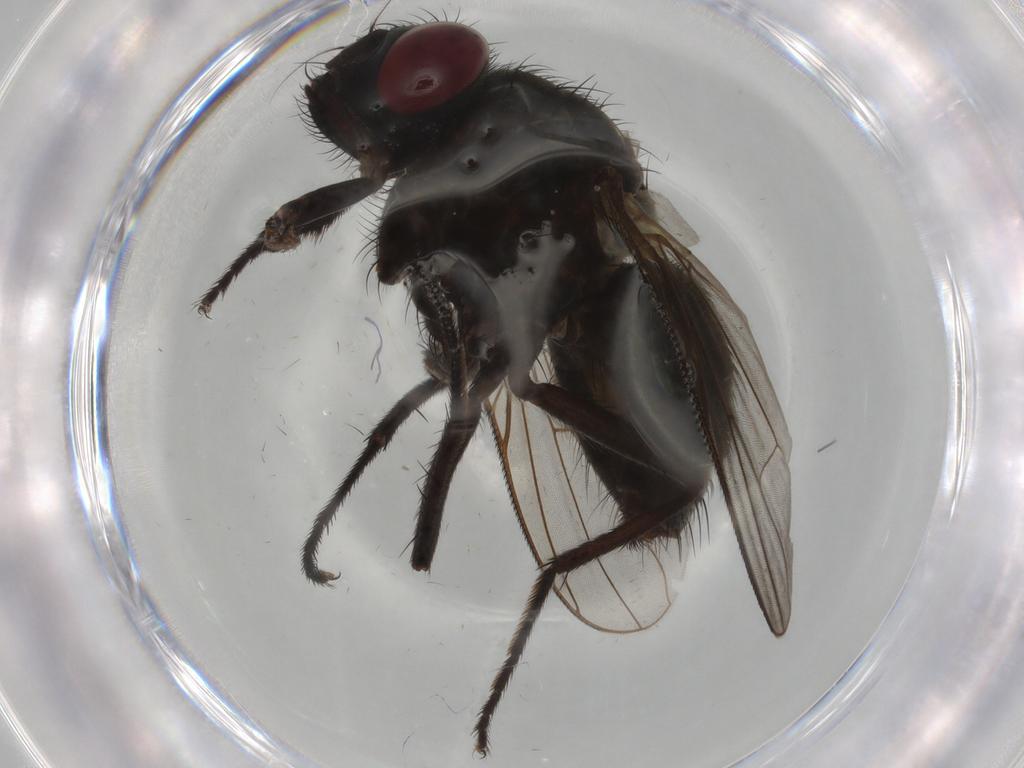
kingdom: Animalia
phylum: Arthropoda
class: Insecta
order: Diptera
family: Muscidae
